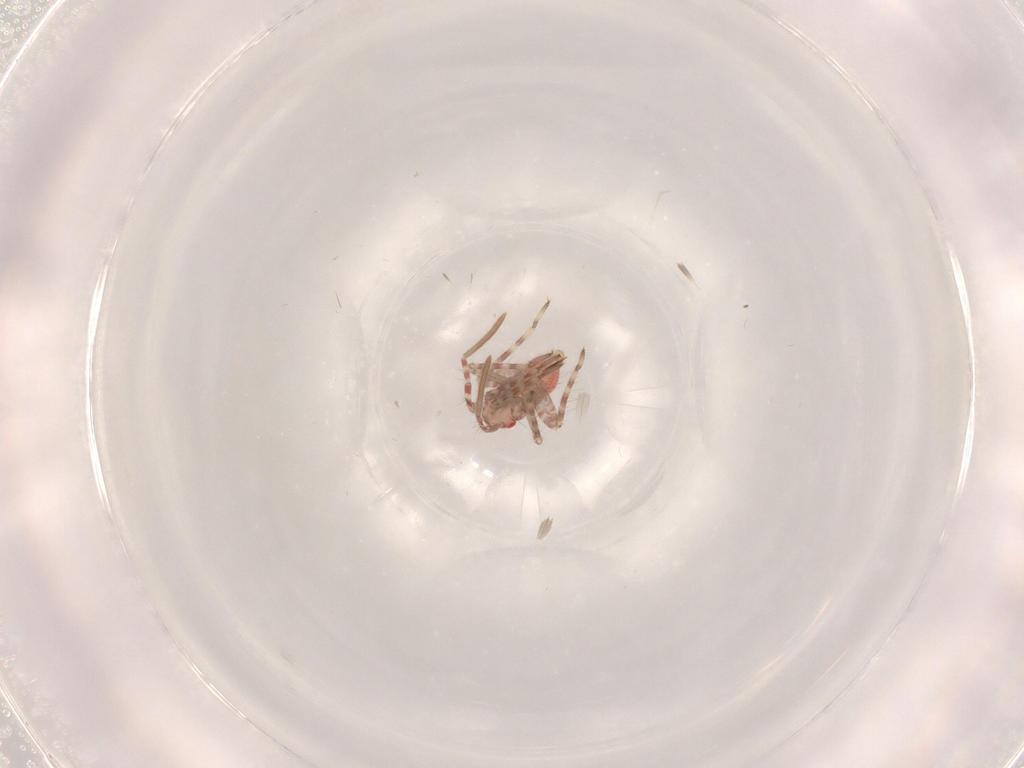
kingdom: Animalia
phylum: Arthropoda
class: Insecta
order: Hemiptera
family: Miridae
